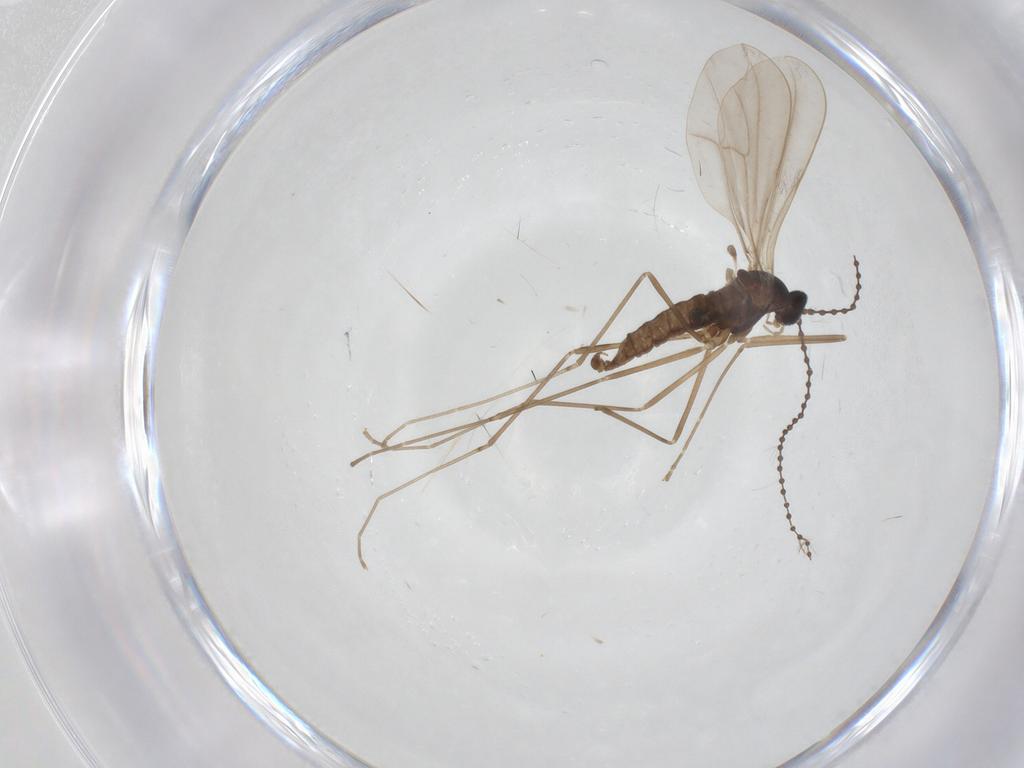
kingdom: Animalia
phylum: Arthropoda
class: Insecta
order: Diptera
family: Cecidomyiidae
